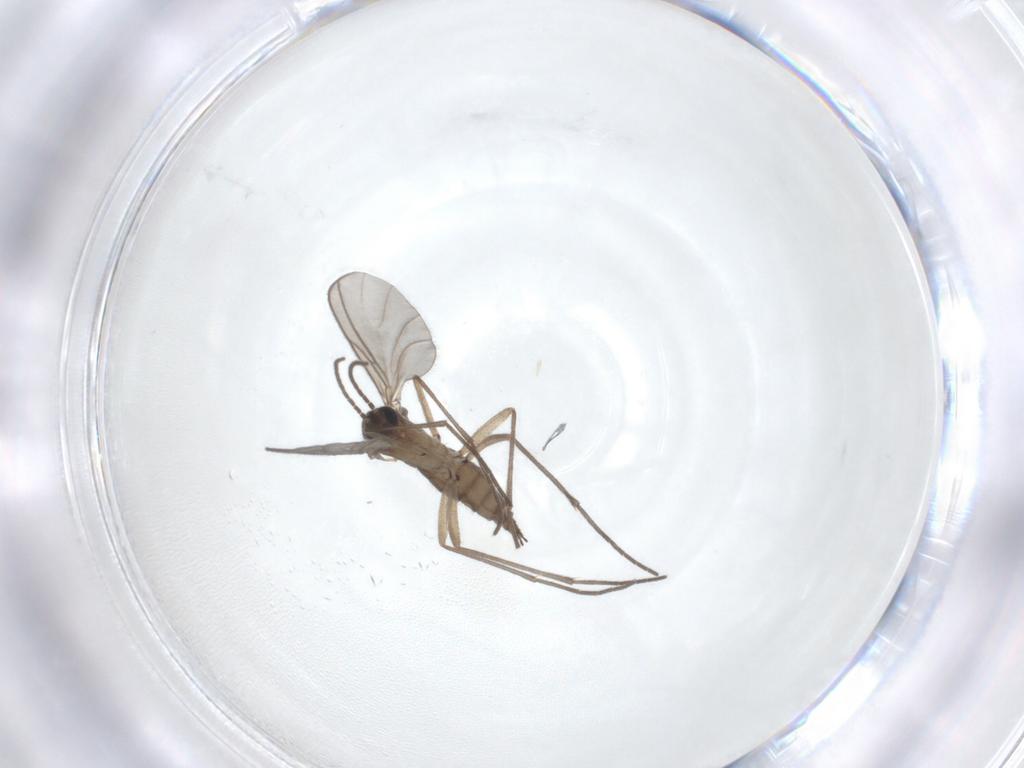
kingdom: Animalia
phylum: Arthropoda
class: Insecta
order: Diptera
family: Sciaridae
